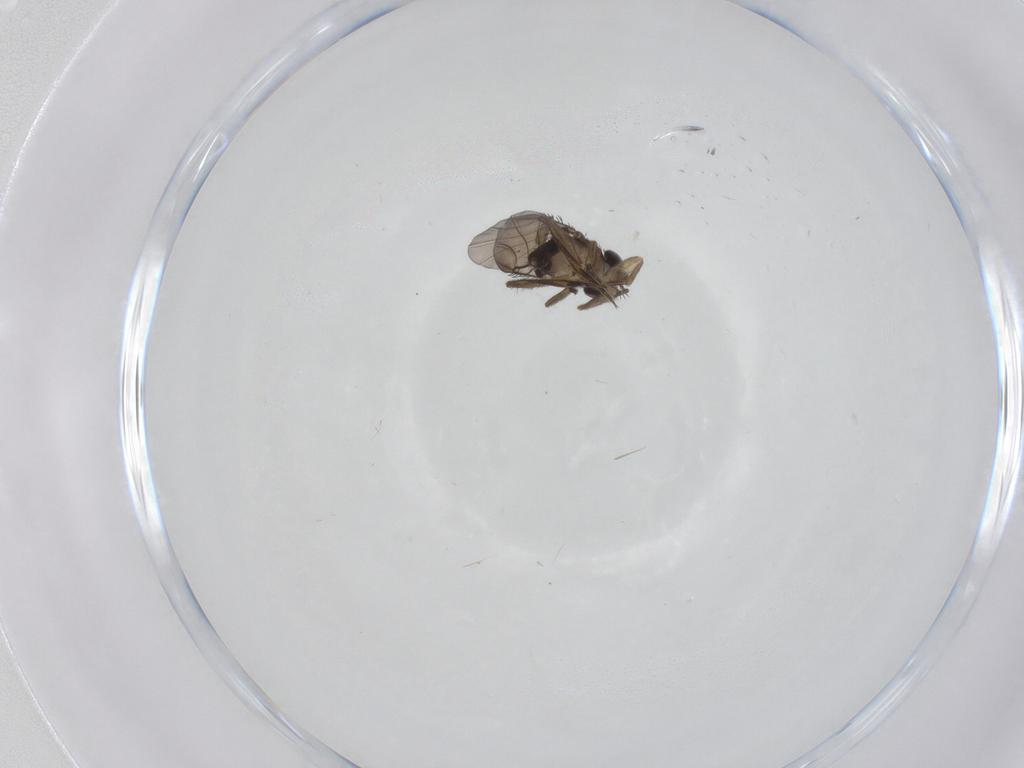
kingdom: Animalia
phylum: Arthropoda
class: Insecta
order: Diptera
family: Phoridae
